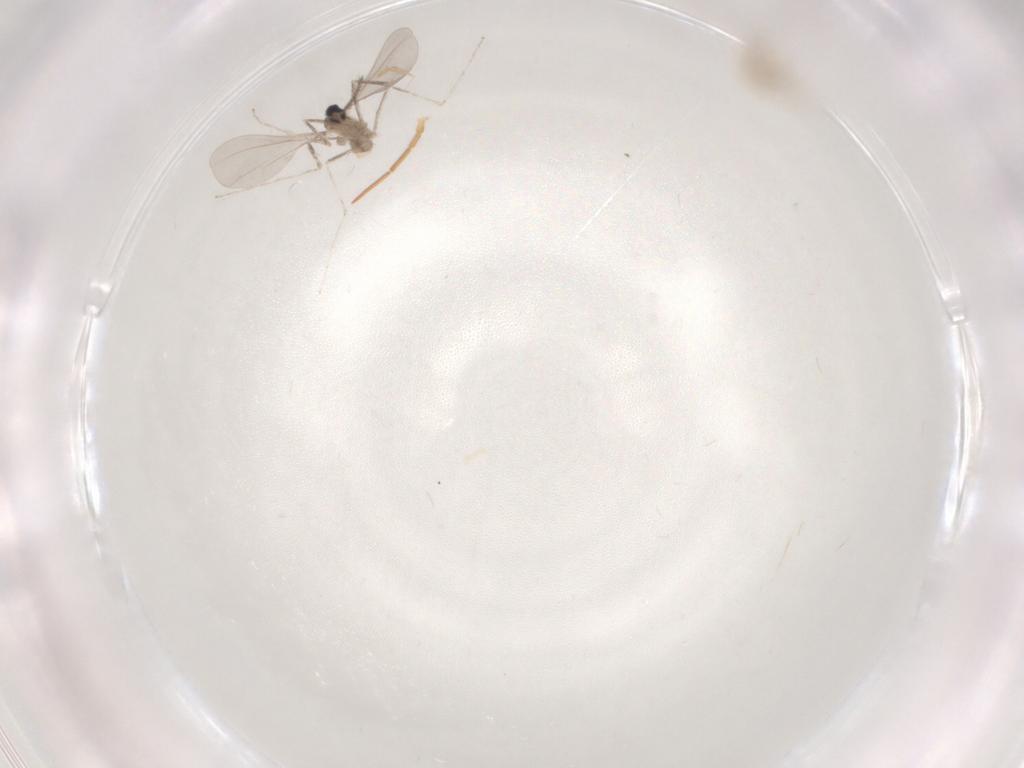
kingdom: Animalia
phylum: Arthropoda
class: Insecta
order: Diptera
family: Cecidomyiidae
